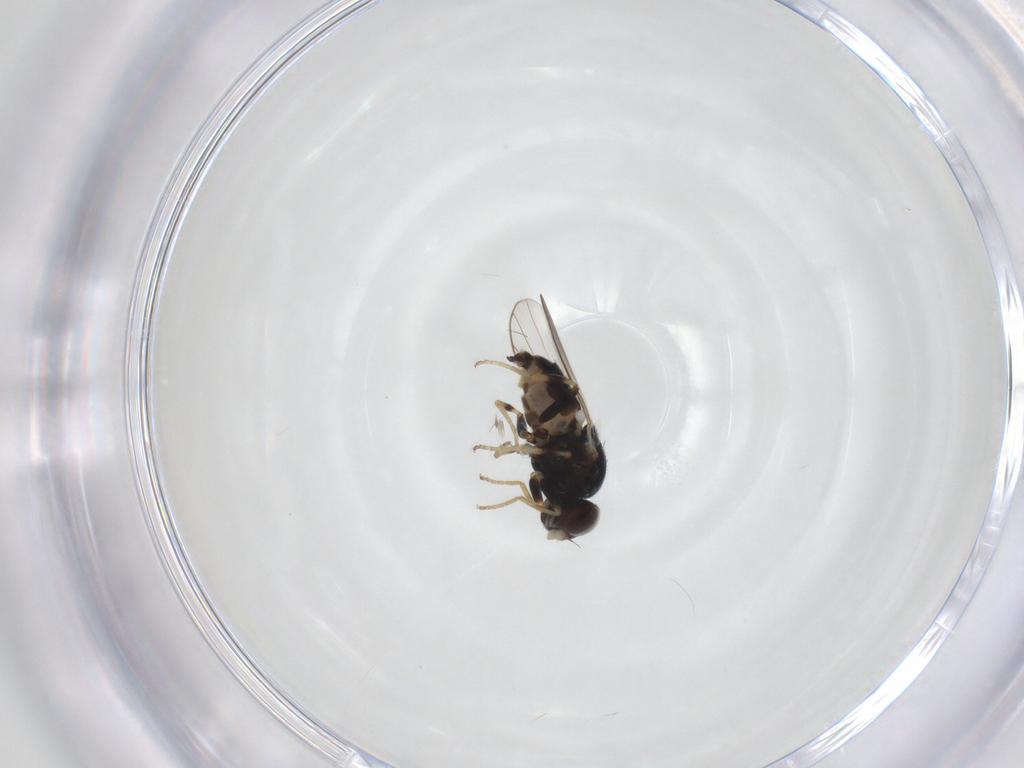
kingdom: Animalia
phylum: Arthropoda
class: Insecta
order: Diptera
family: Chloropidae
